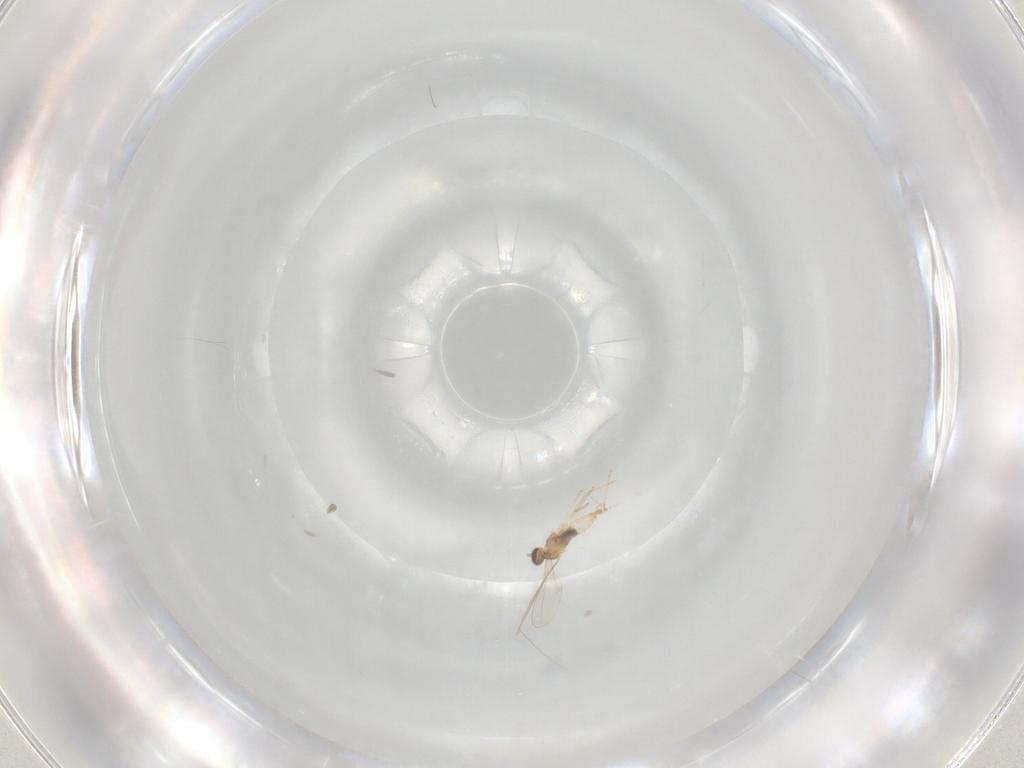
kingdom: Animalia
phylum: Arthropoda
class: Insecta
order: Diptera
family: Cecidomyiidae
